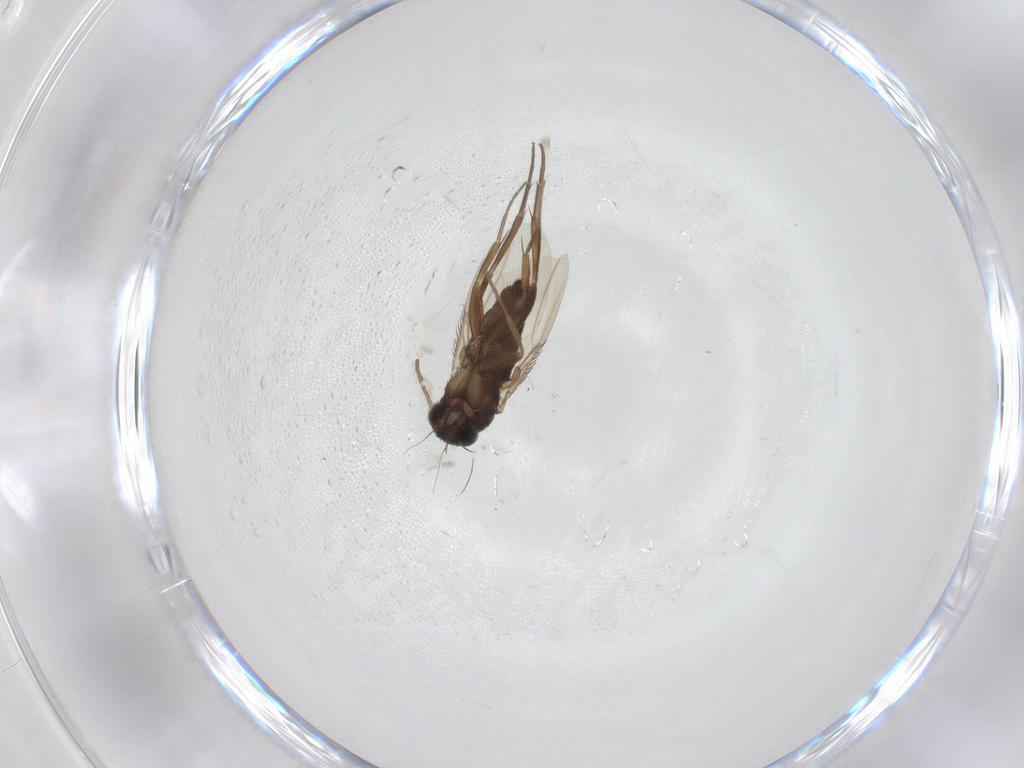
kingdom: Animalia
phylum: Arthropoda
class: Insecta
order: Diptera
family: Phoridae
